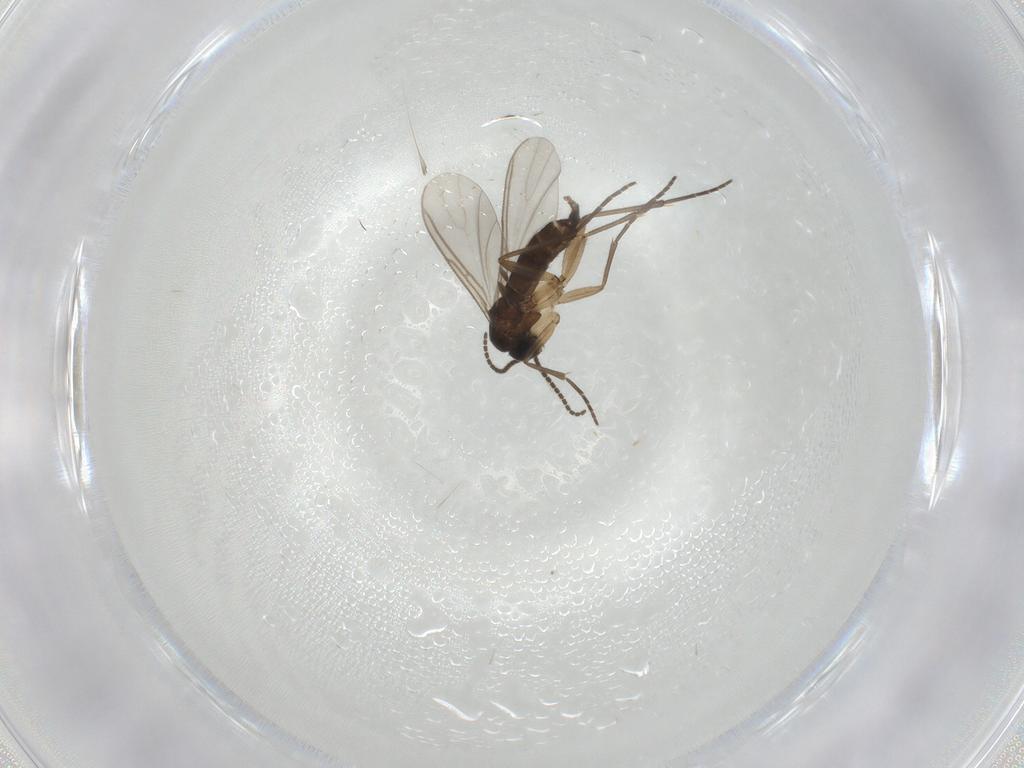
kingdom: Animalia
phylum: Arthropoda
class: Insecta
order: Diptera
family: Phoridae
